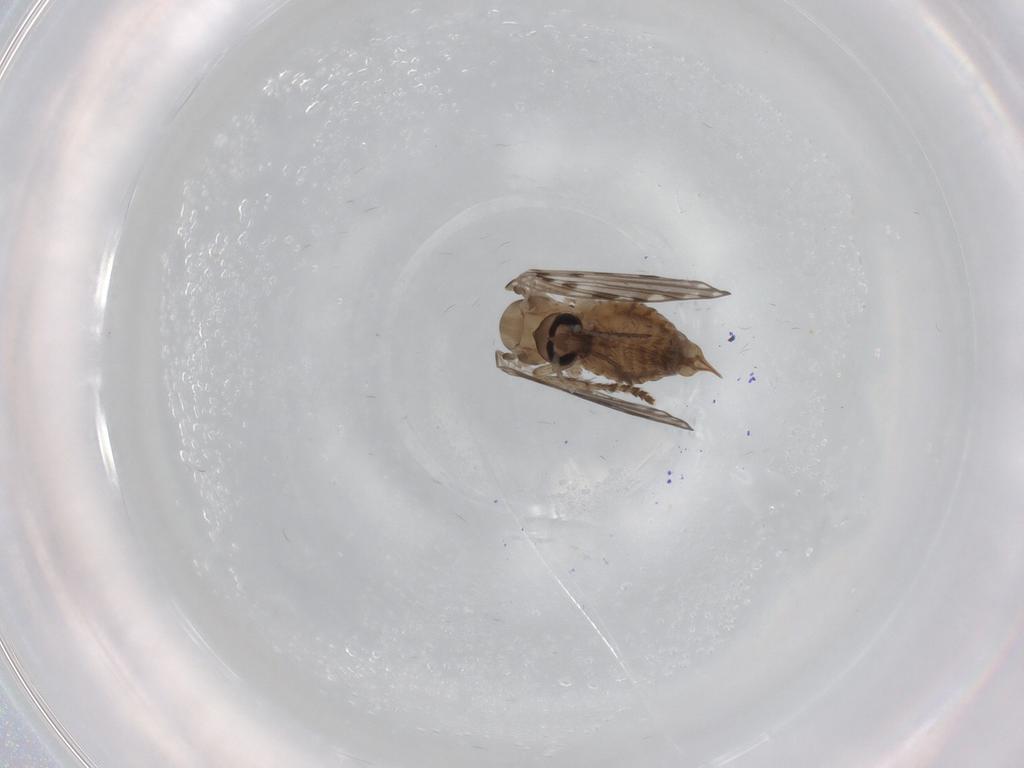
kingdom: Animalia
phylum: Arthropoda
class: Insecta
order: Diptera
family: Psychodidae
